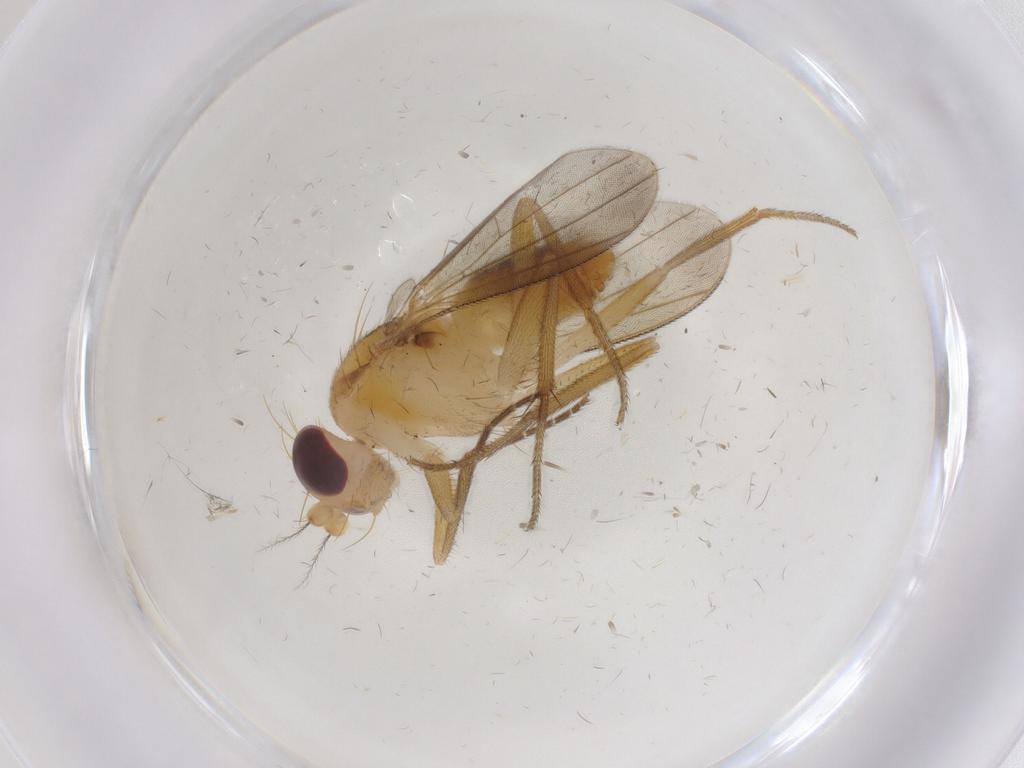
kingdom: Animalia
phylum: Arthropoda
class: Insecta
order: Diptera
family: Agromyzidae
